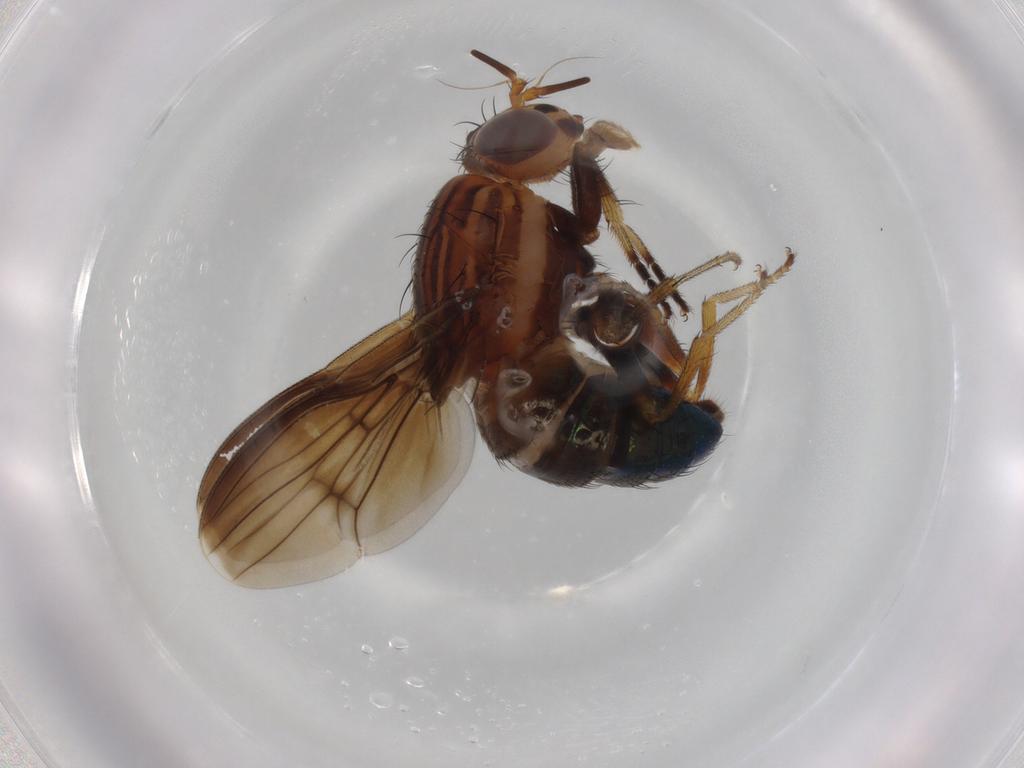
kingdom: Animalia
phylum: Arthropoda
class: Insecta
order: Diptera
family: Lauxaniidae
